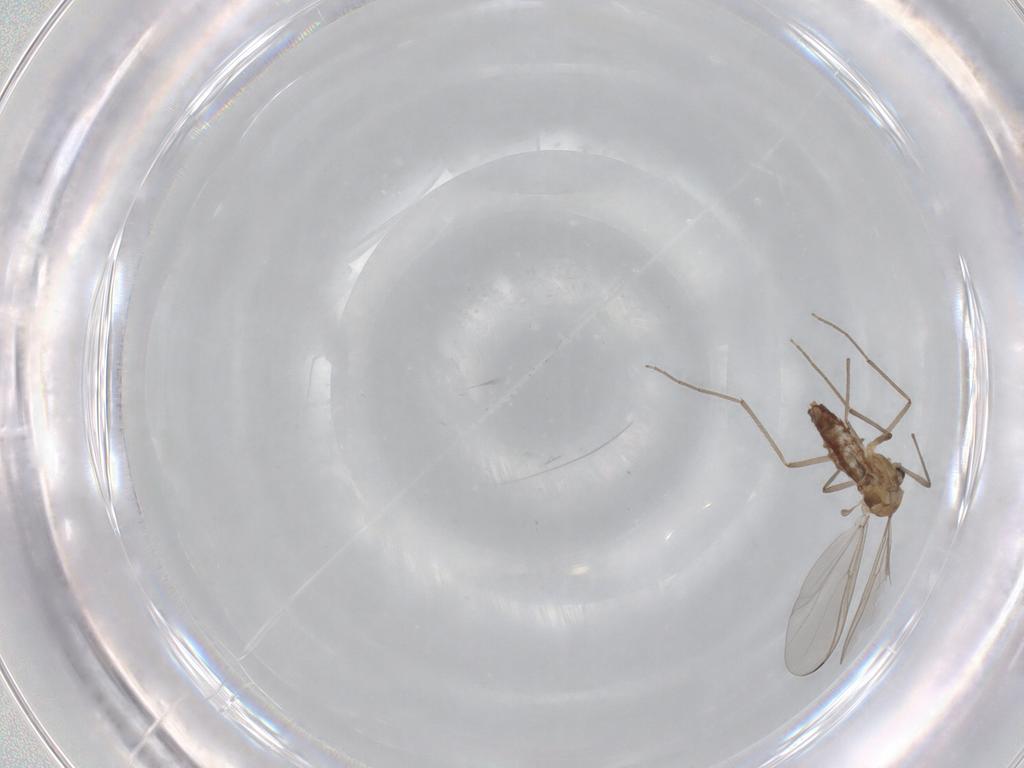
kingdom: Animalia
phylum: Arthropoda
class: Insecta
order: Diptera
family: Chironomidae
